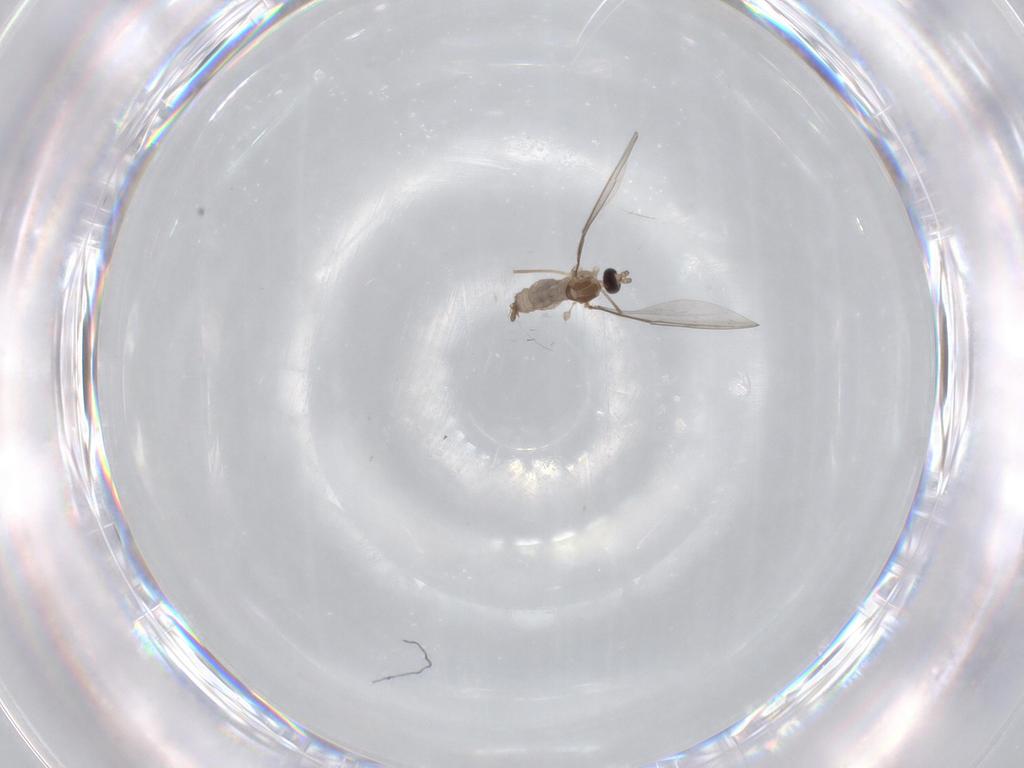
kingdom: Animalia
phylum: Arthropoda
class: Insecta
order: Diptera
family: Cecidomyiidae
